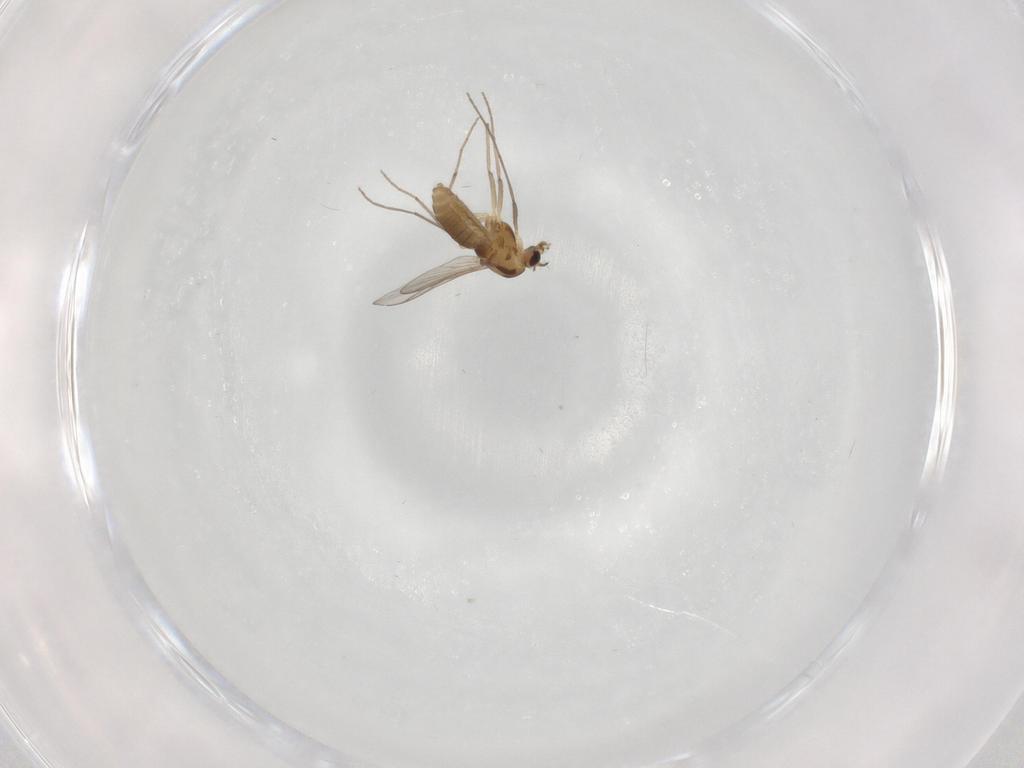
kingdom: Animalia
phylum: Arthropoda
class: Insecta
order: Diptera
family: Chironomidae
